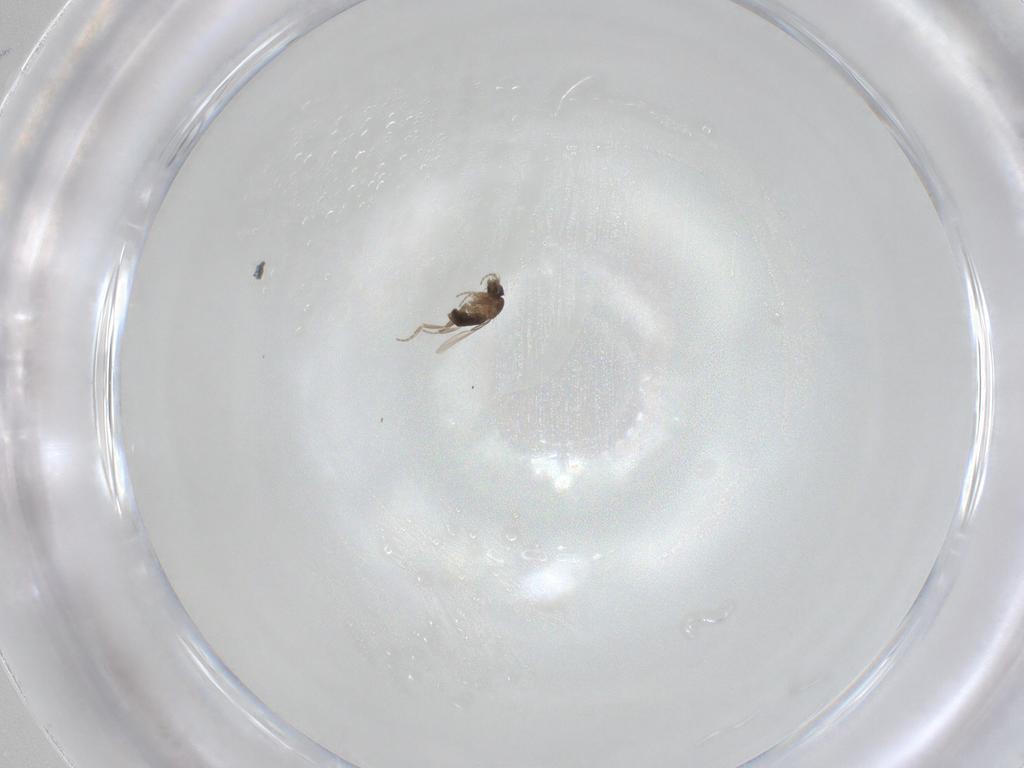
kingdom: Animalia
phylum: Arthropoda
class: Insecta
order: Diptera
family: Phoridae
